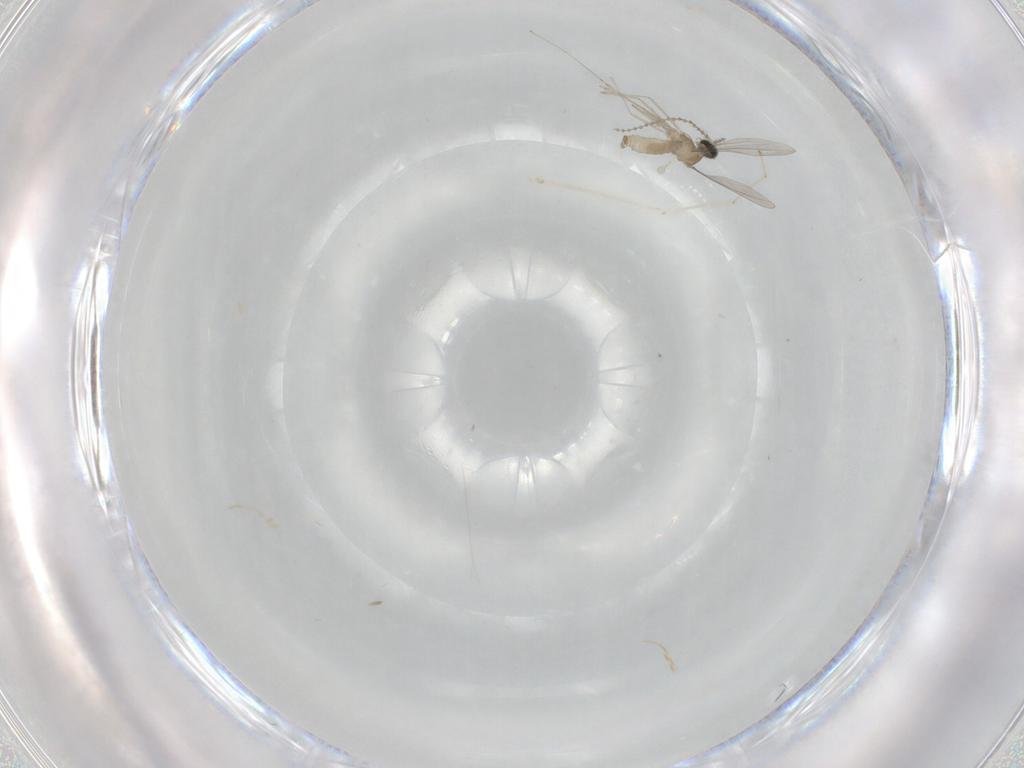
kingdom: Animalia
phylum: Arthropoda
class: Insecta
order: Diptera
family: Cecidomyiidae
